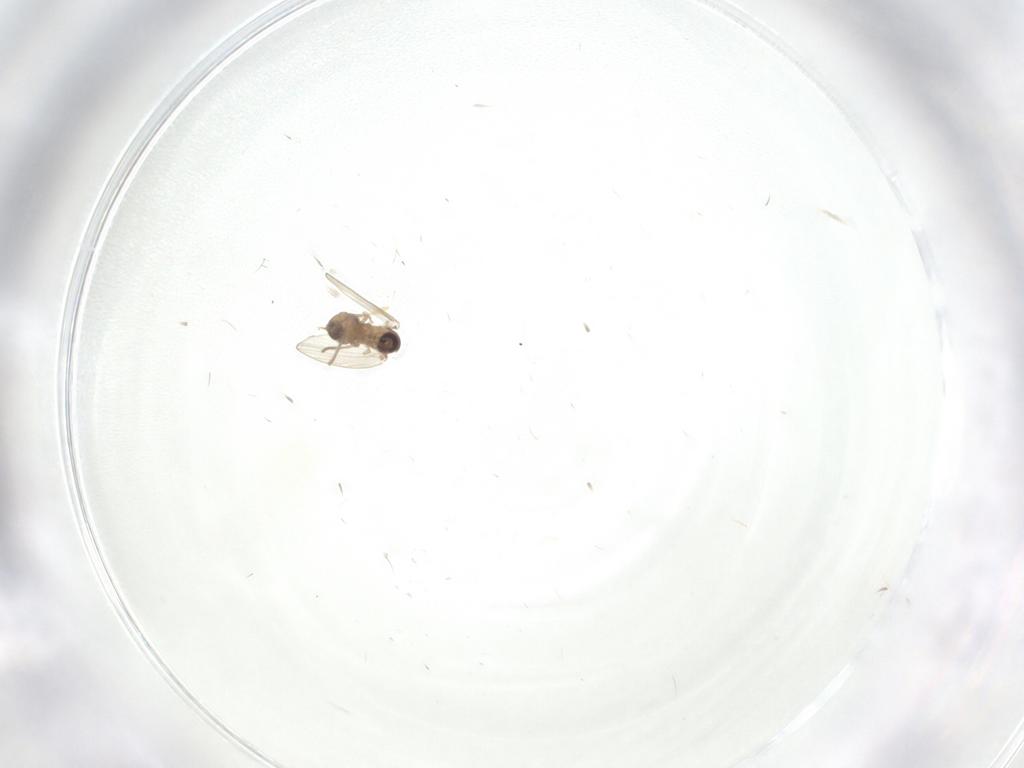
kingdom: Animalia
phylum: Arthropoda
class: Insecta
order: Diptera
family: Psychodidae
